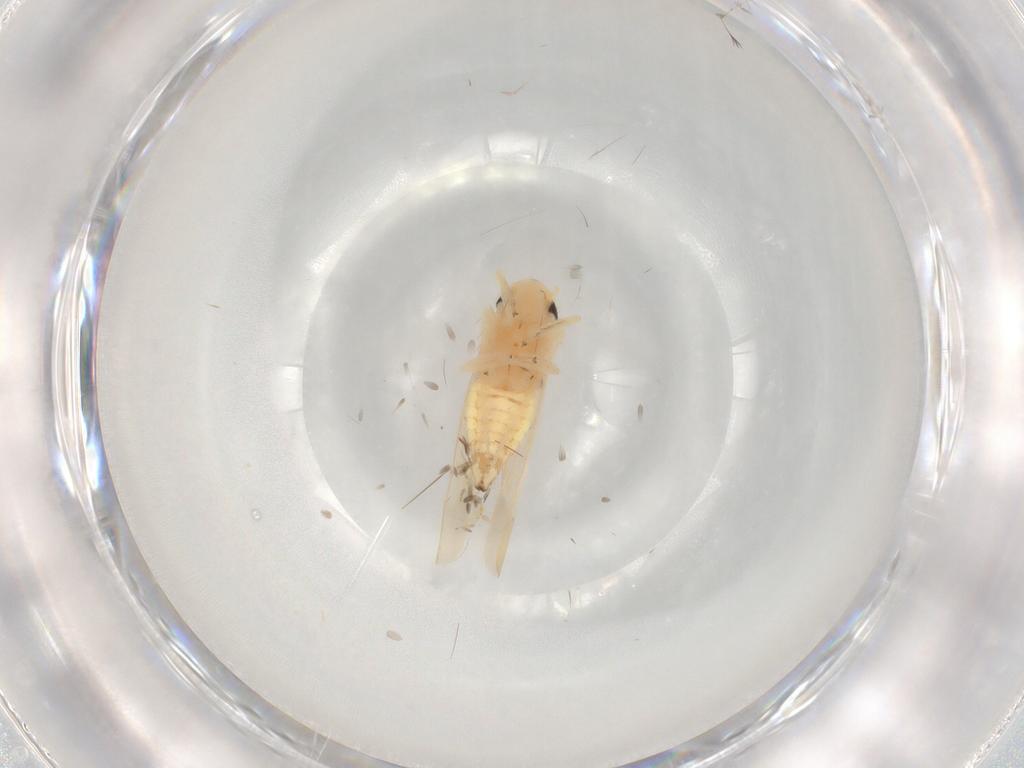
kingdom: Animalia
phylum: Arthropoda
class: Insecta
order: Hemiptera
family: Cicadellidae
